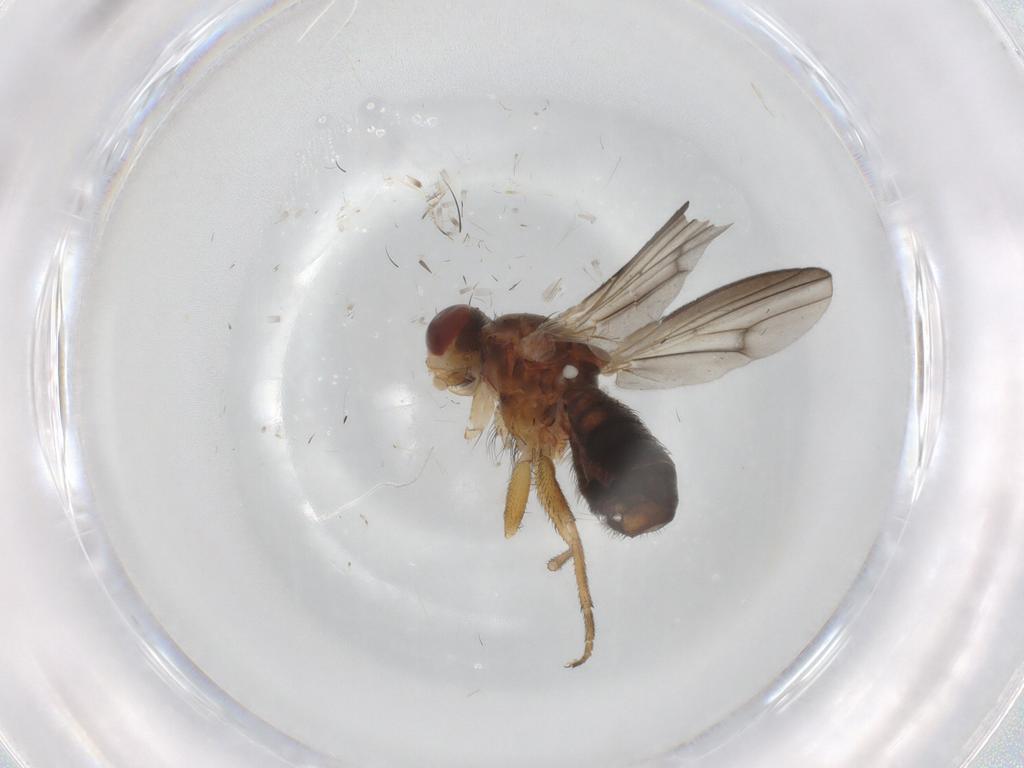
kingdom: Animalia
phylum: Arthropoda
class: Insecta
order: Diptera
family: Heleomyzidae
